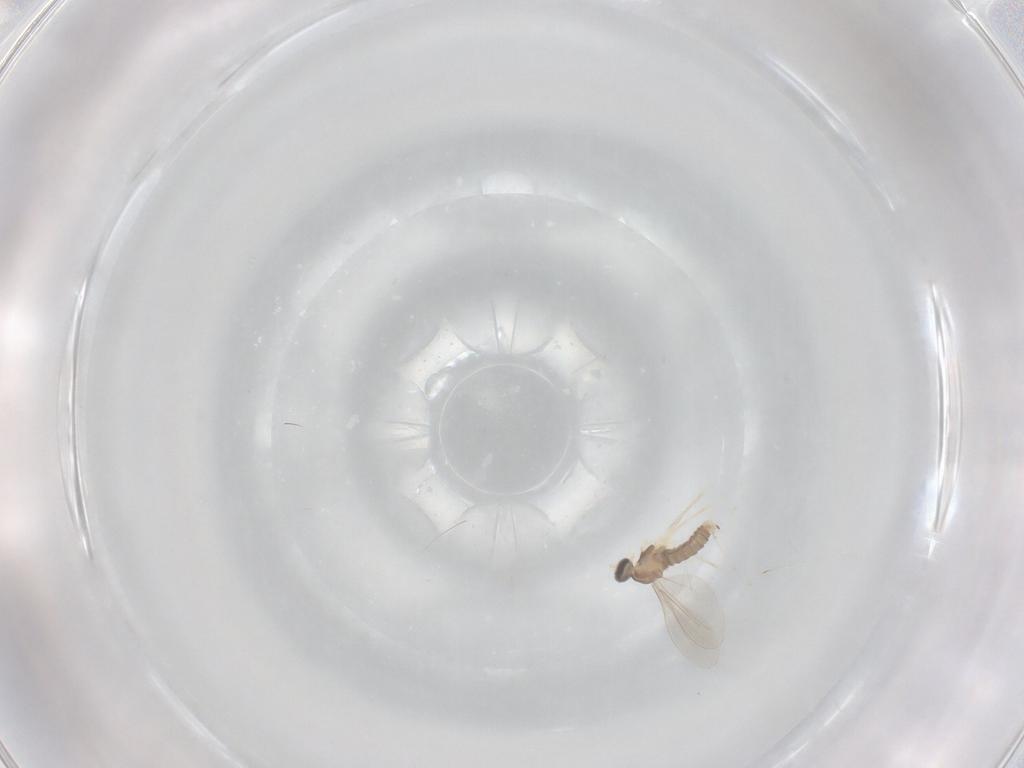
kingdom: Animalia
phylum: Arthropoda
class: Insecta
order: Diptera
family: Cecidomyiidae
